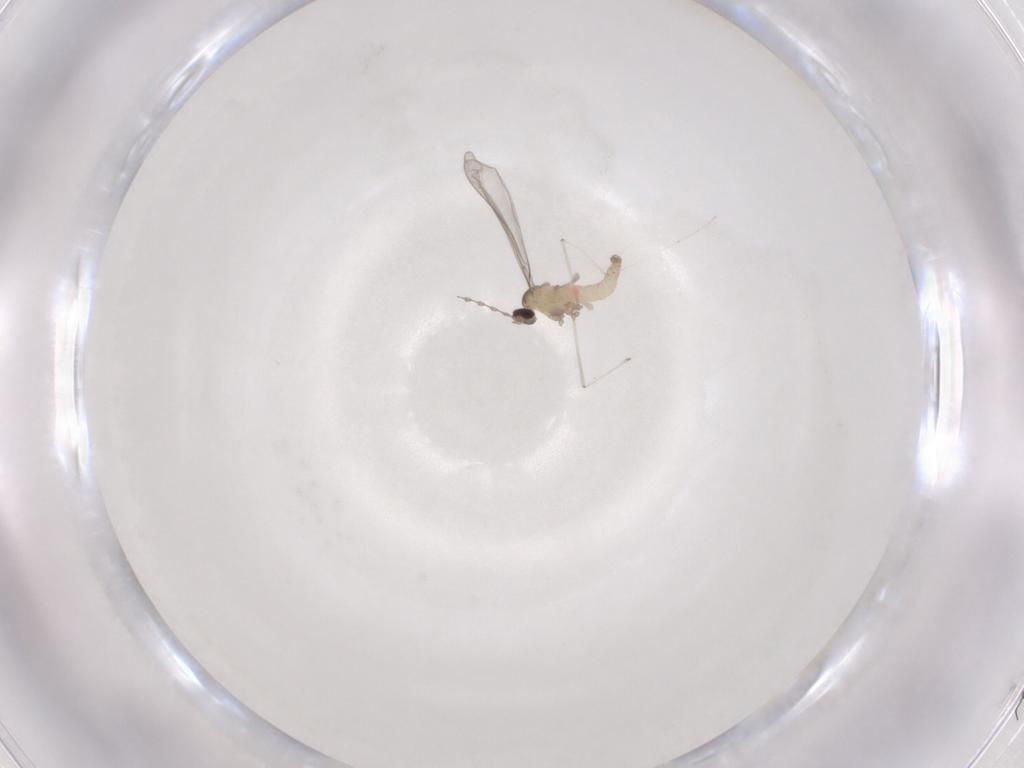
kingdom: Animalia
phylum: Arthropoda
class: Insecta
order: Diptera
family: Cecidomyiidae
